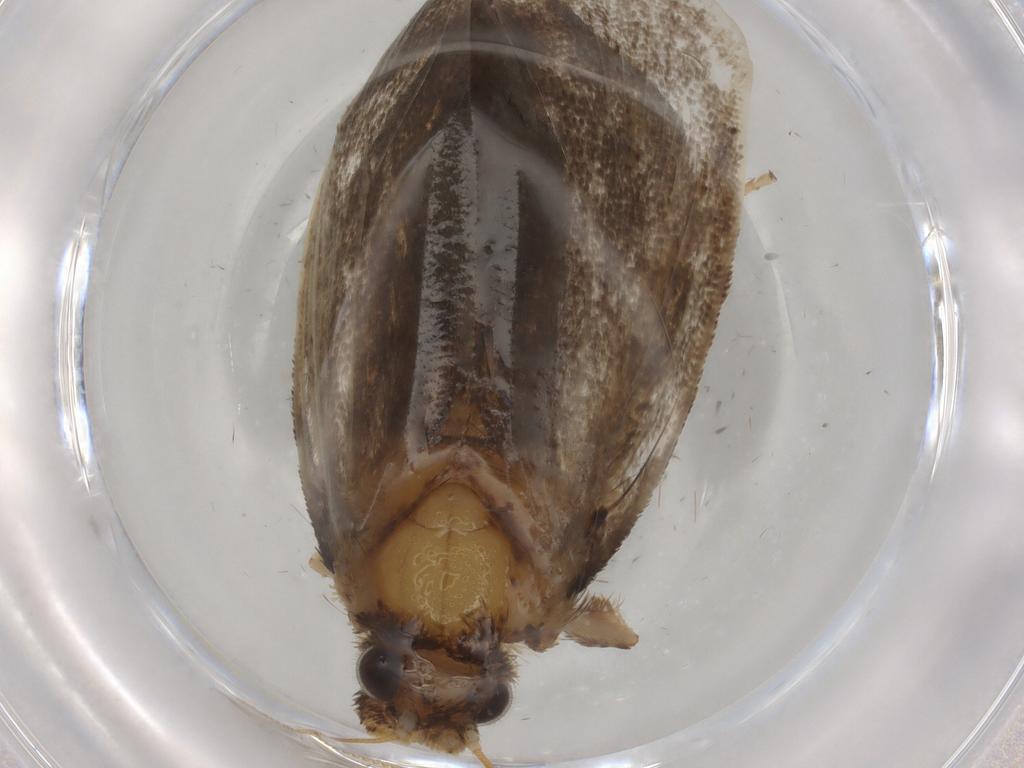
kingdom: Animalia
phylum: Arthropoda
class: Insecta
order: Lepidoptera
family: Tineidae
